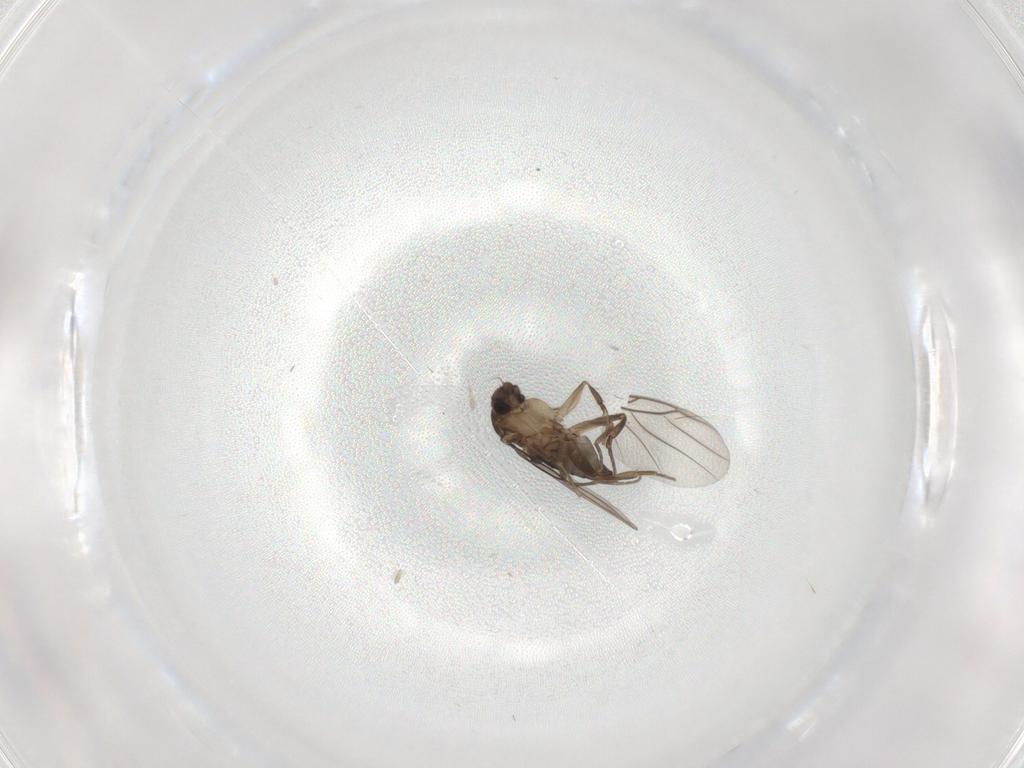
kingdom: Animalia
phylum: Arthropoda
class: Insecta
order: Diptera
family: Phoridae
